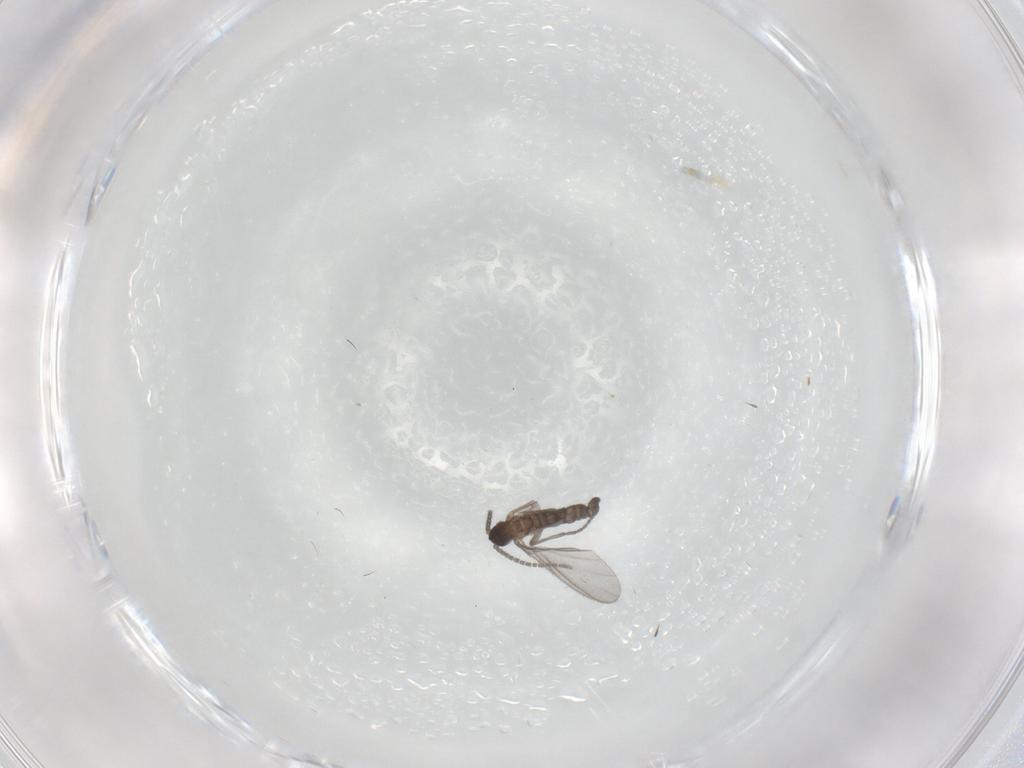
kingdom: Animalia
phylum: Arthropoda
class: Insecta
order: Diptera
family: Sciaridae
